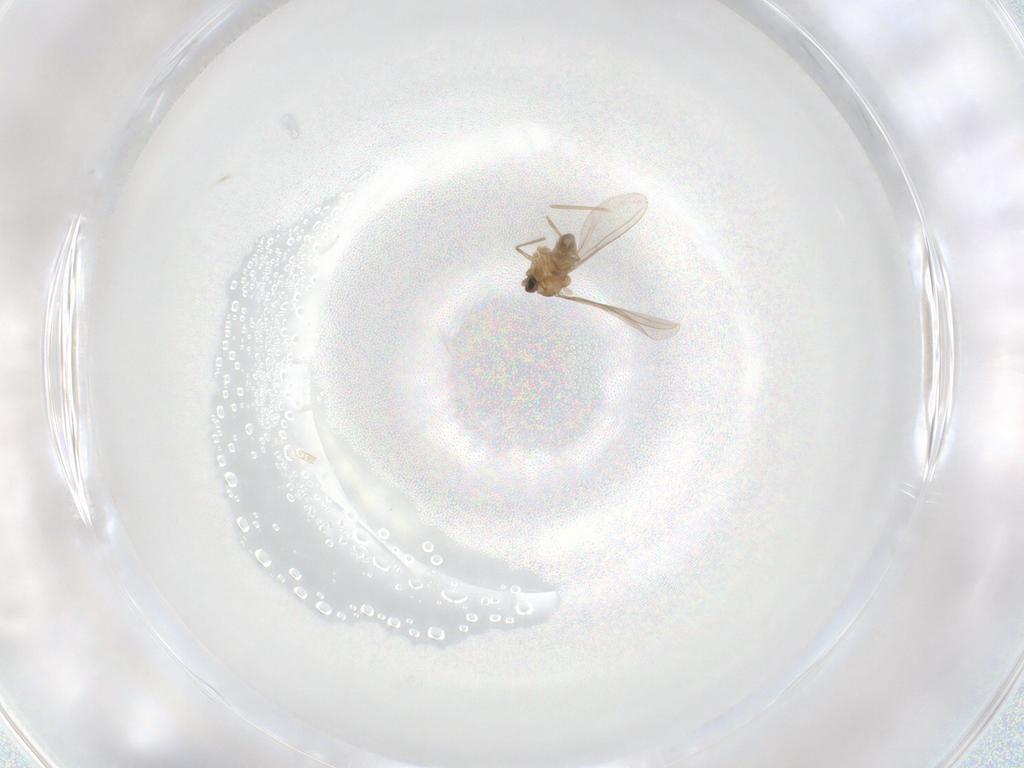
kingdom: Animalia
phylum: Arthropoda
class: Insecta
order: Diptera
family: Cecidomyiidae
